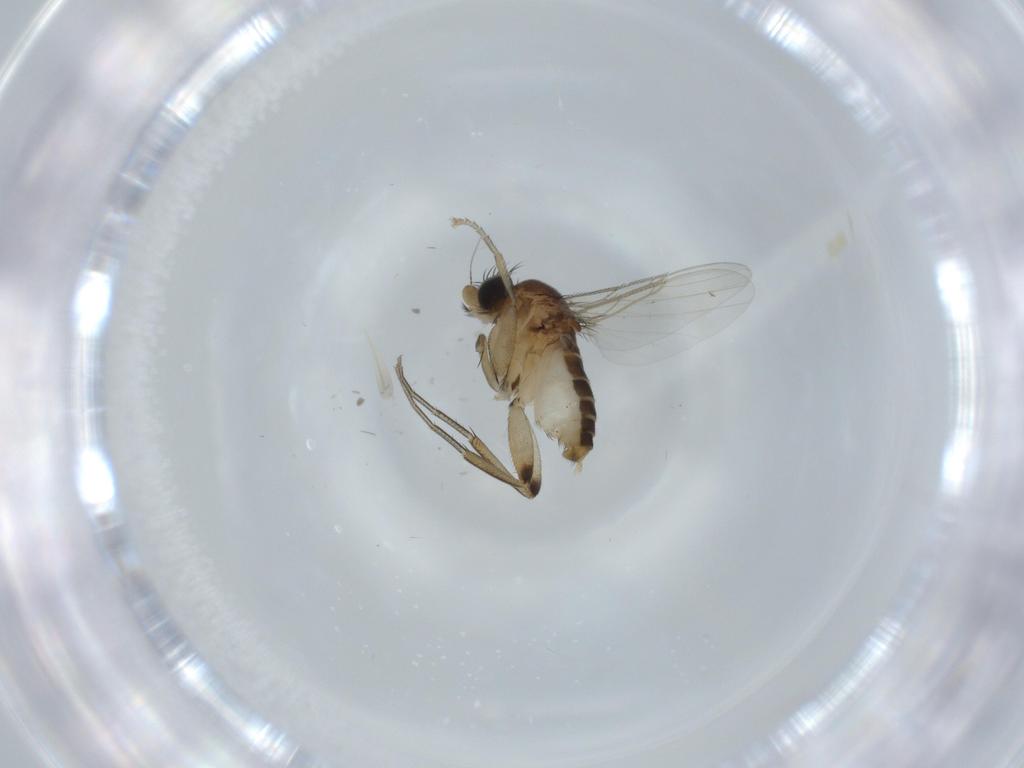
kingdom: Animalia
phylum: Arthropoda
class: Insecta
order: Diptera
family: Phoridae
